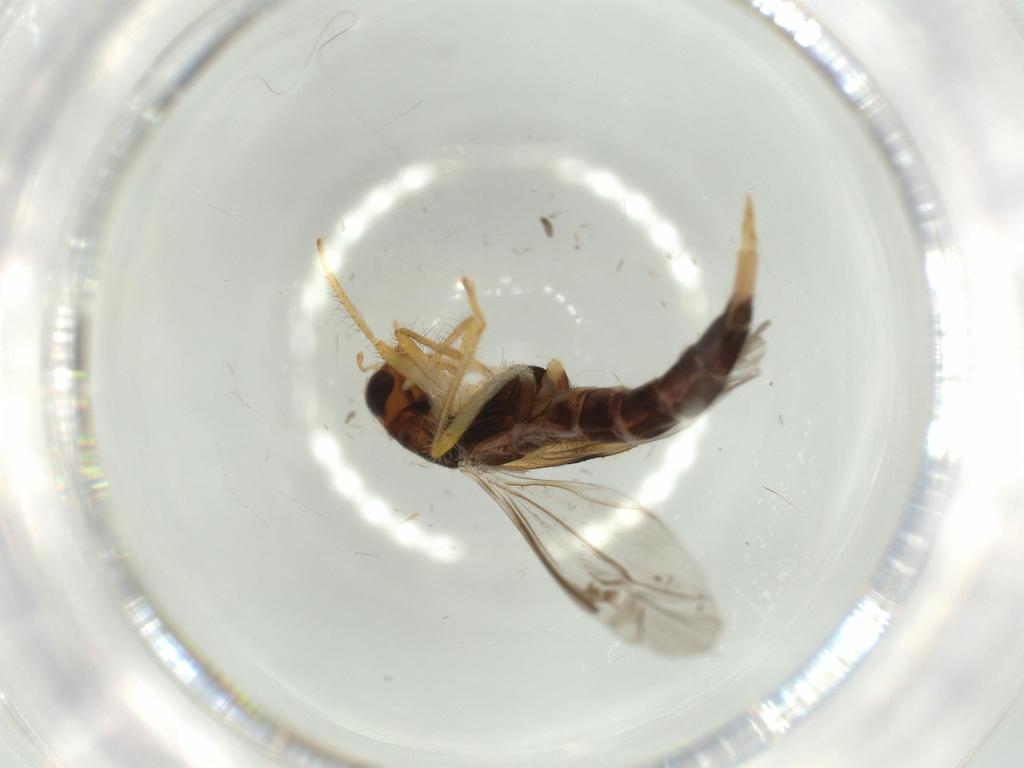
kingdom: Animalia
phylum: Arthropoda
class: Insecta
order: Coleoptera
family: Cleridae
